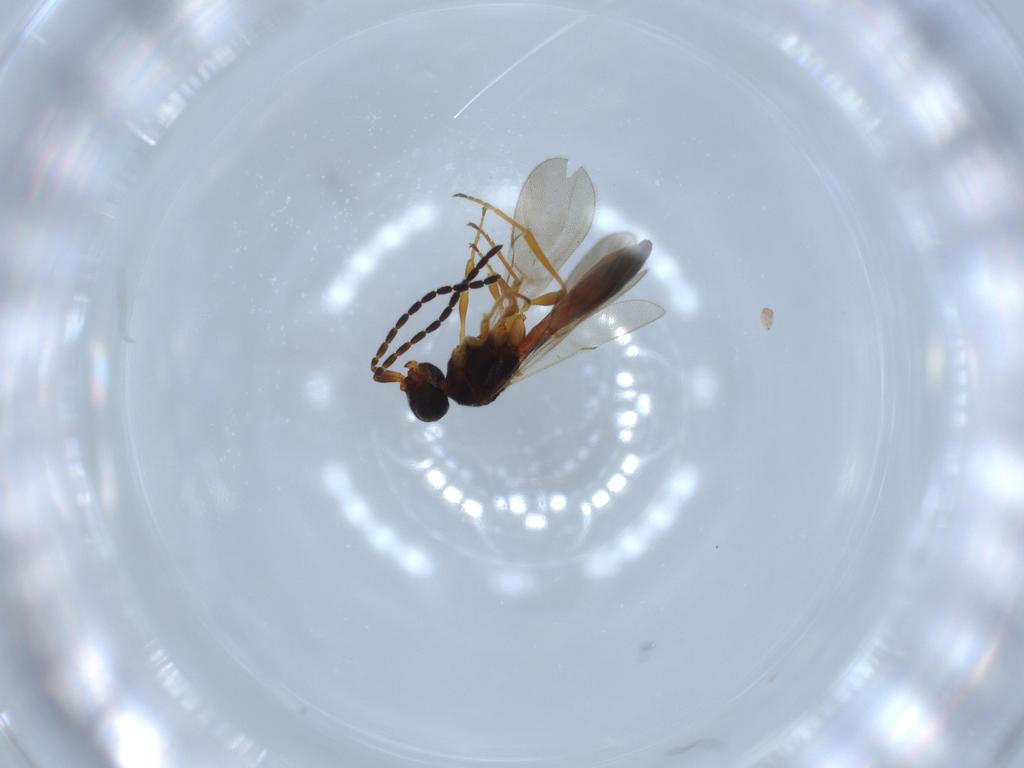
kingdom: Animalia
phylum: Arthropoda
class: Insecta
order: Hymenoptera
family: Scelionidae
